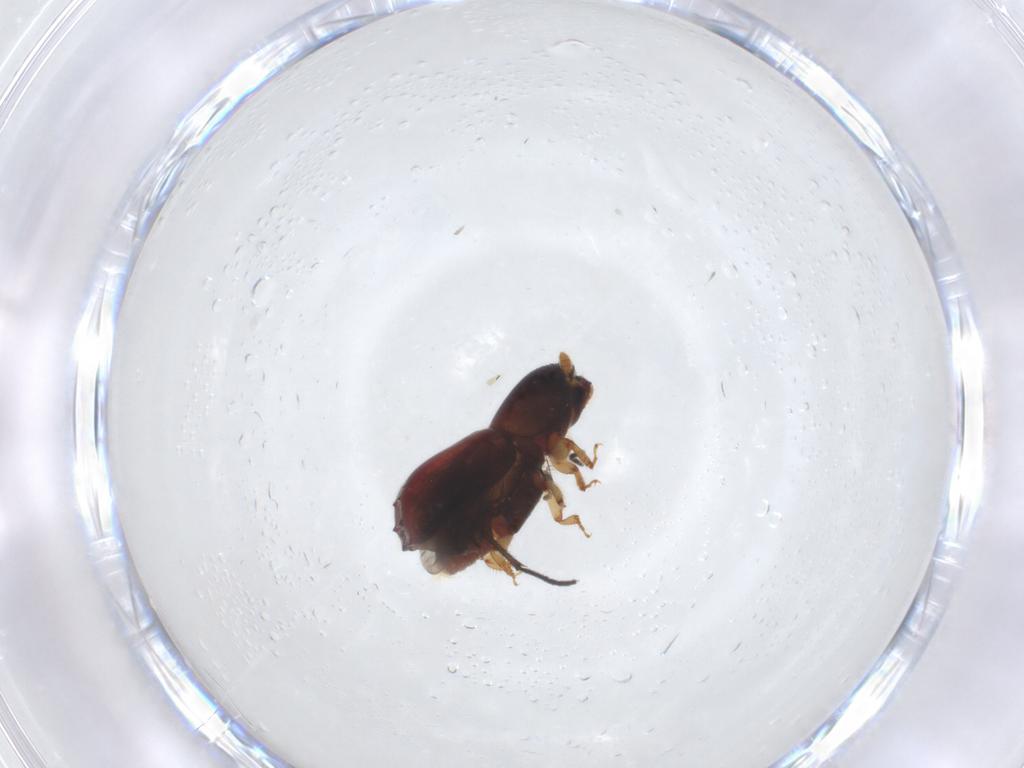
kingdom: Animalia
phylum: Arthropoda
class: Insecta
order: Coleoptera
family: Curculionidae
